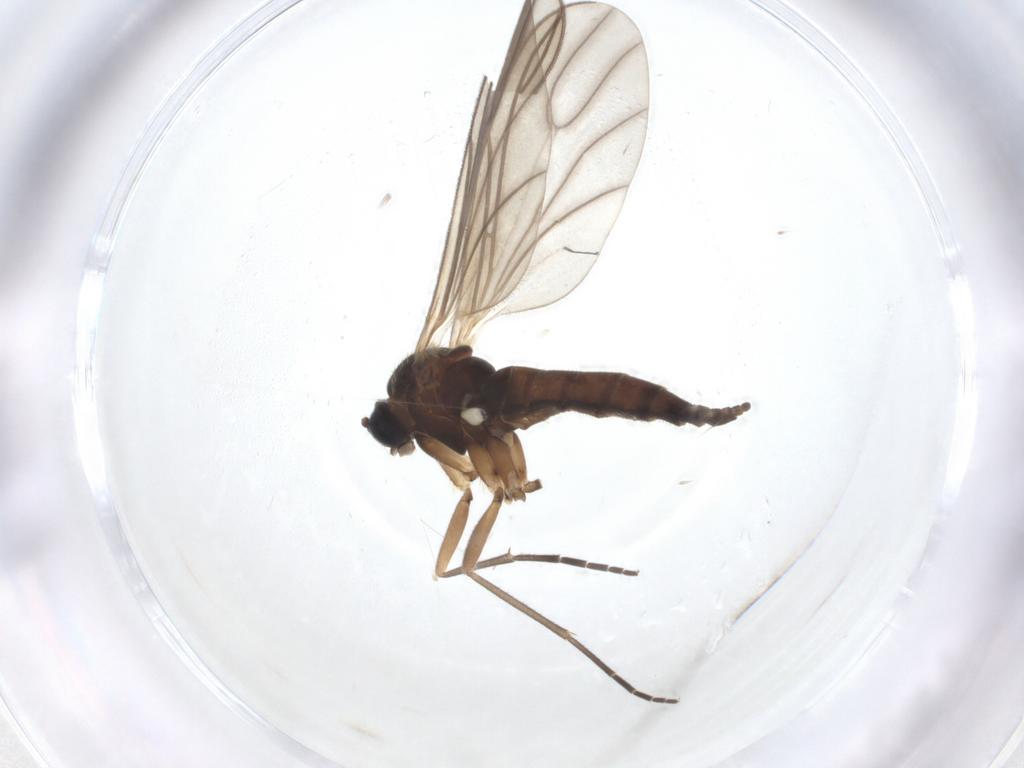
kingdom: Animalia
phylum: Arthropoda
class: Insecta
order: Diptera
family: Sciaridae
